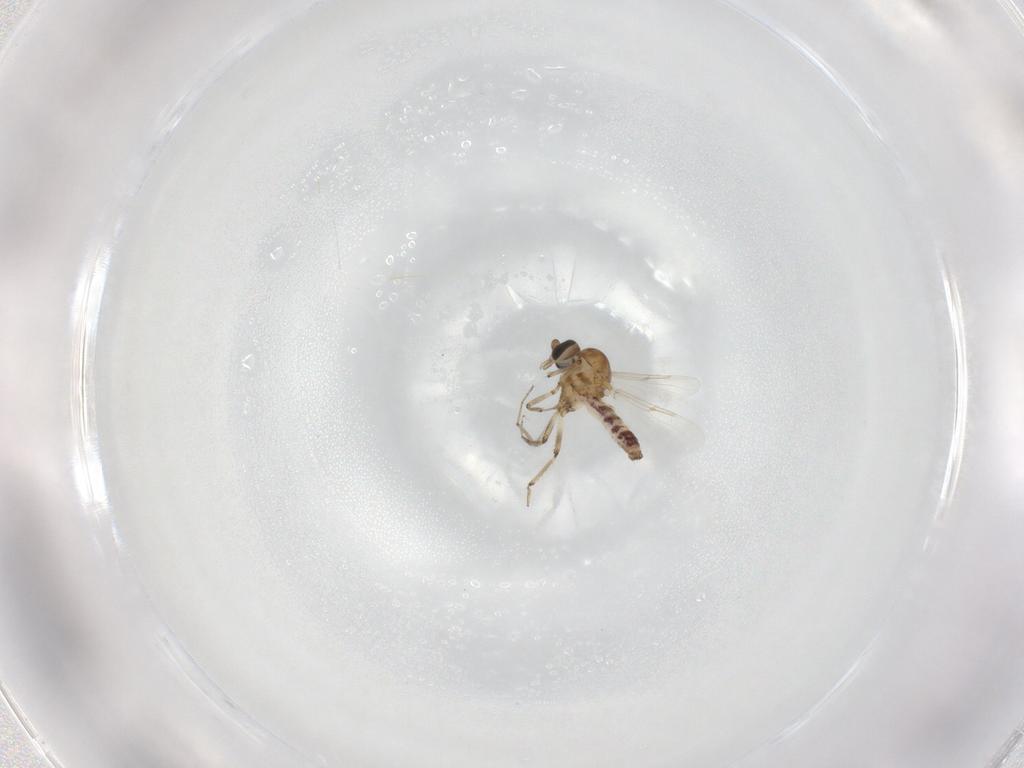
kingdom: Animalia
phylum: Arthropoda
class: Insecta
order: Diptera
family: Ceratopogonidae
